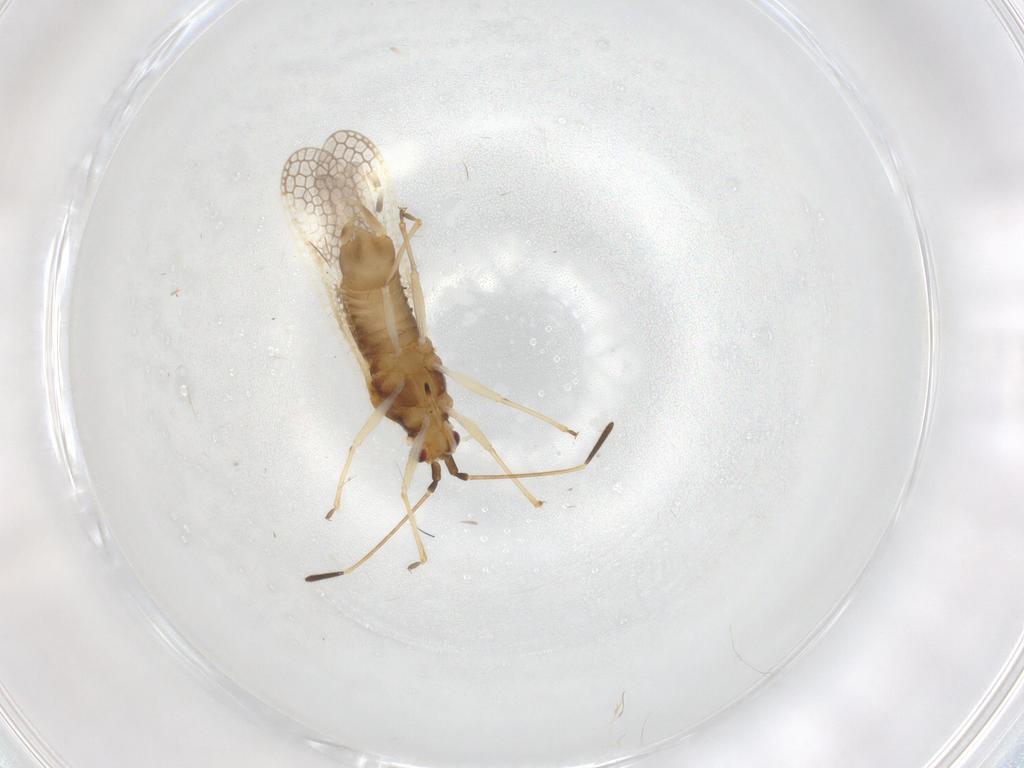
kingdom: Animalia
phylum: Arthropoda
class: Insecta
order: Hemiptera
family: Tingidae
